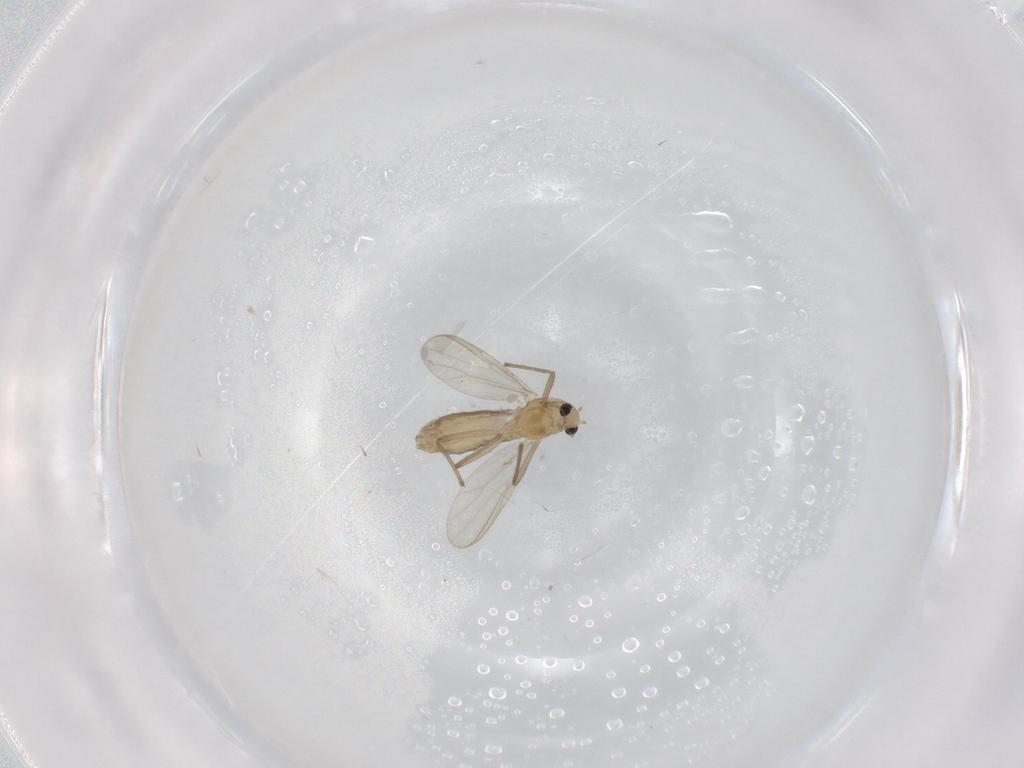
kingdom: Animalia
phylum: Arthropoda
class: Insecta
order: Diptera
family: Chironomidae
